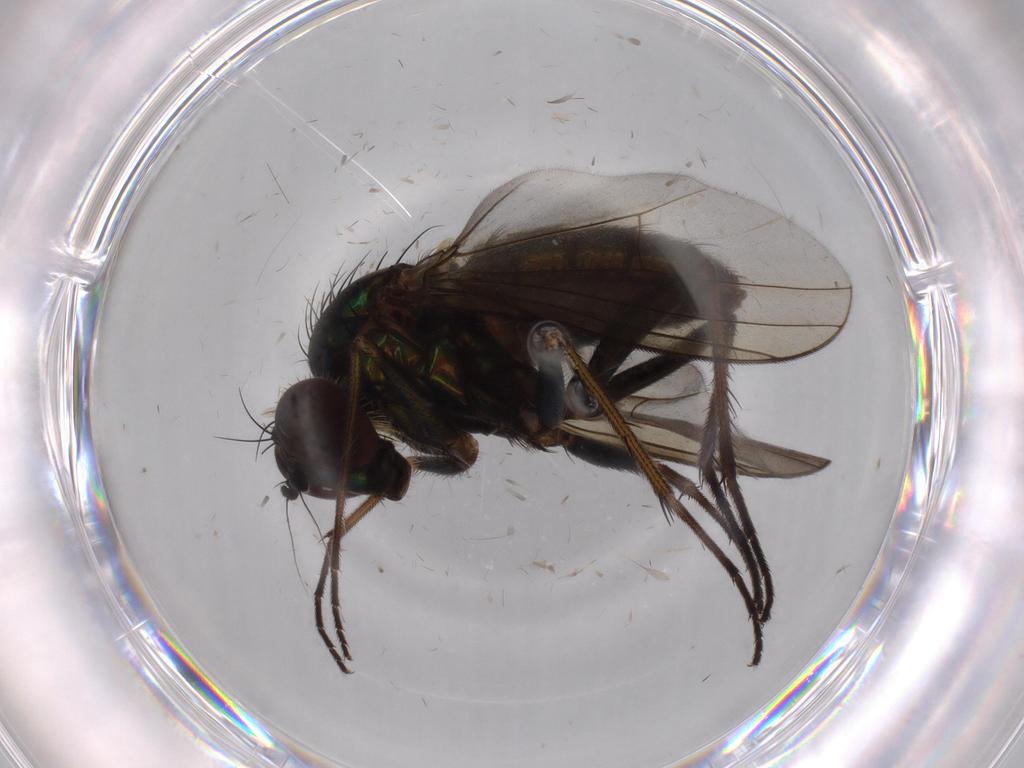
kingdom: Animalia
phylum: Arthropoda
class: Insecta
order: Diptera
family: Dolichopodidae
